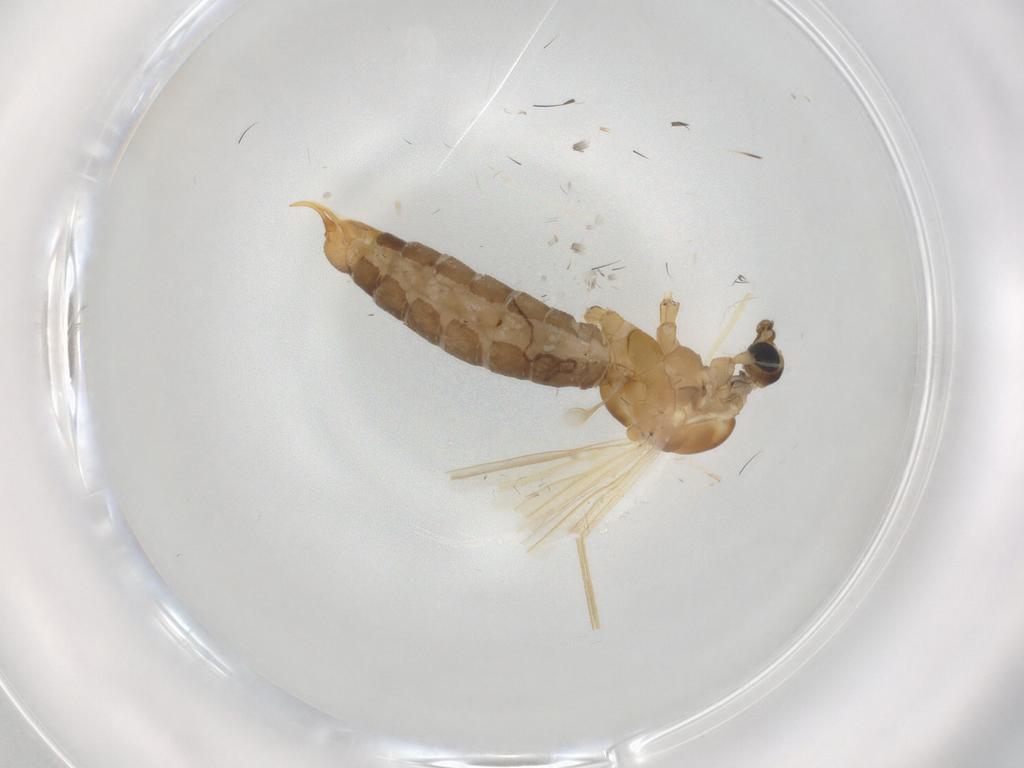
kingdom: Animalia
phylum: Arthropoda
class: Insecta
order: Diptera
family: Limoniidae
